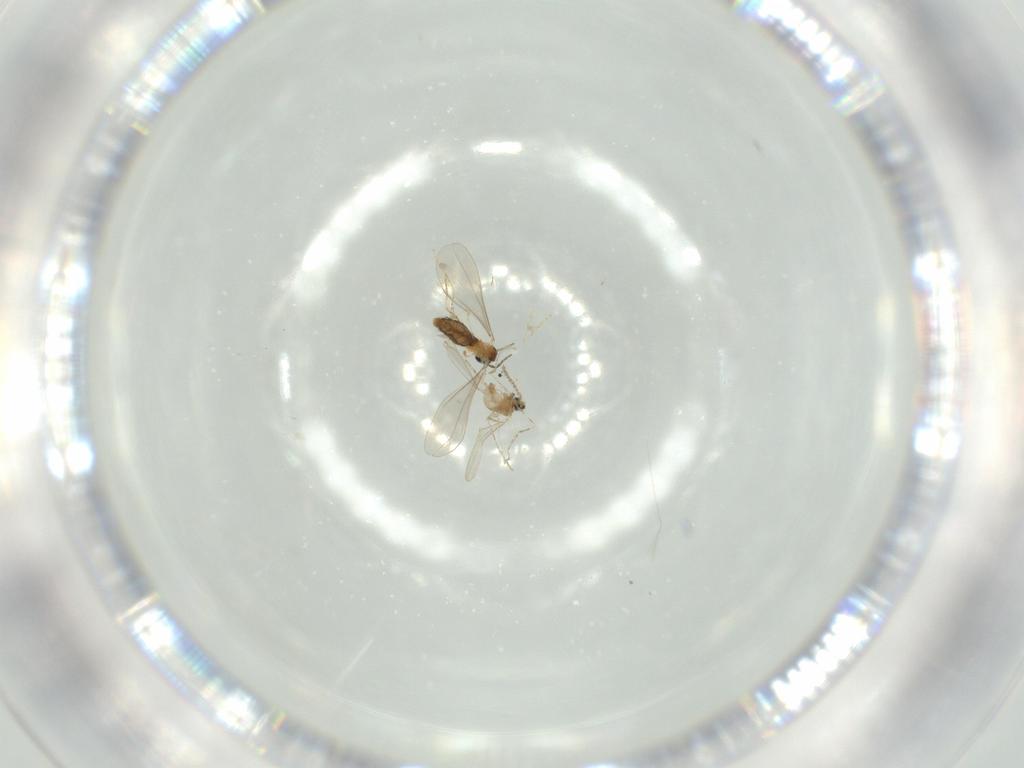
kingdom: Animalia
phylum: Arthropoda
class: Insecta
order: Diptera
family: Cecidomyiidae
